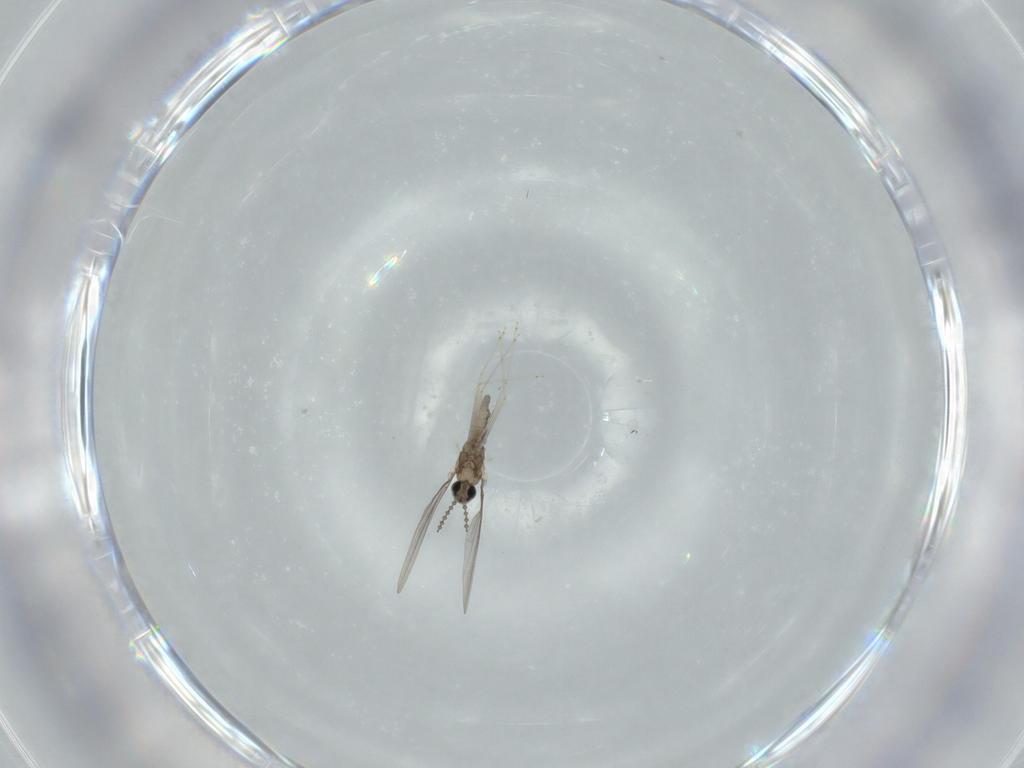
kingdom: Animalia
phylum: Arthropoda
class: Insecta
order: Diptera
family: Cecidomyiidae
